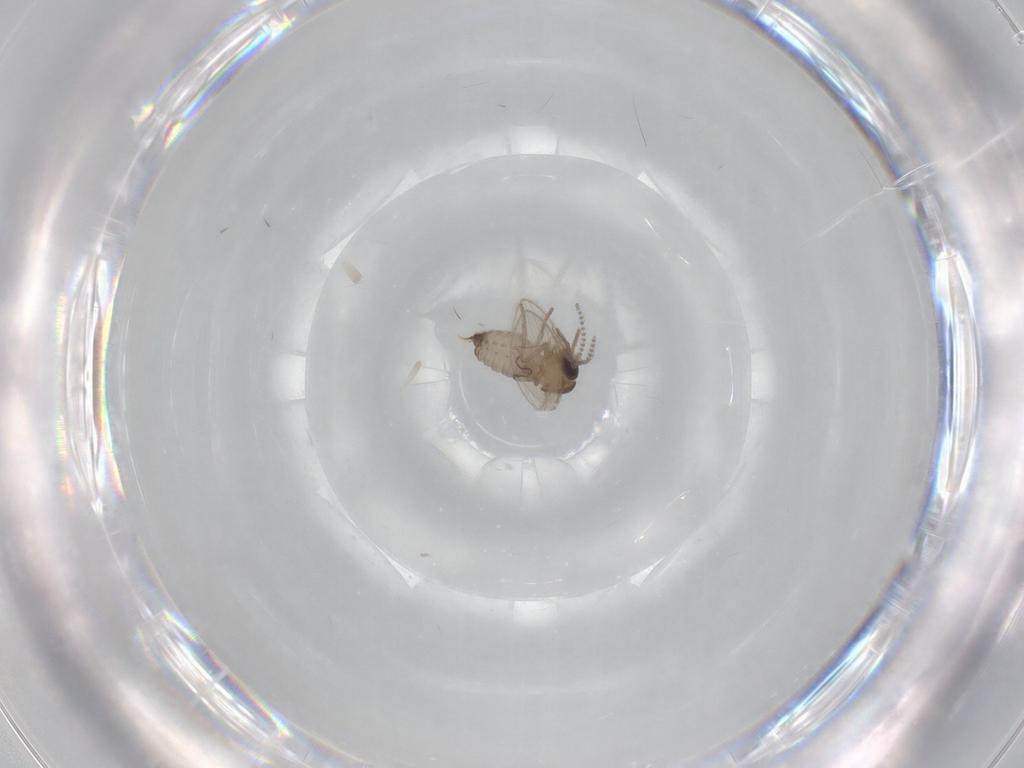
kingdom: Animalia
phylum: Arthropoda
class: Insecta
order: Diptera
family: Psychodidae
